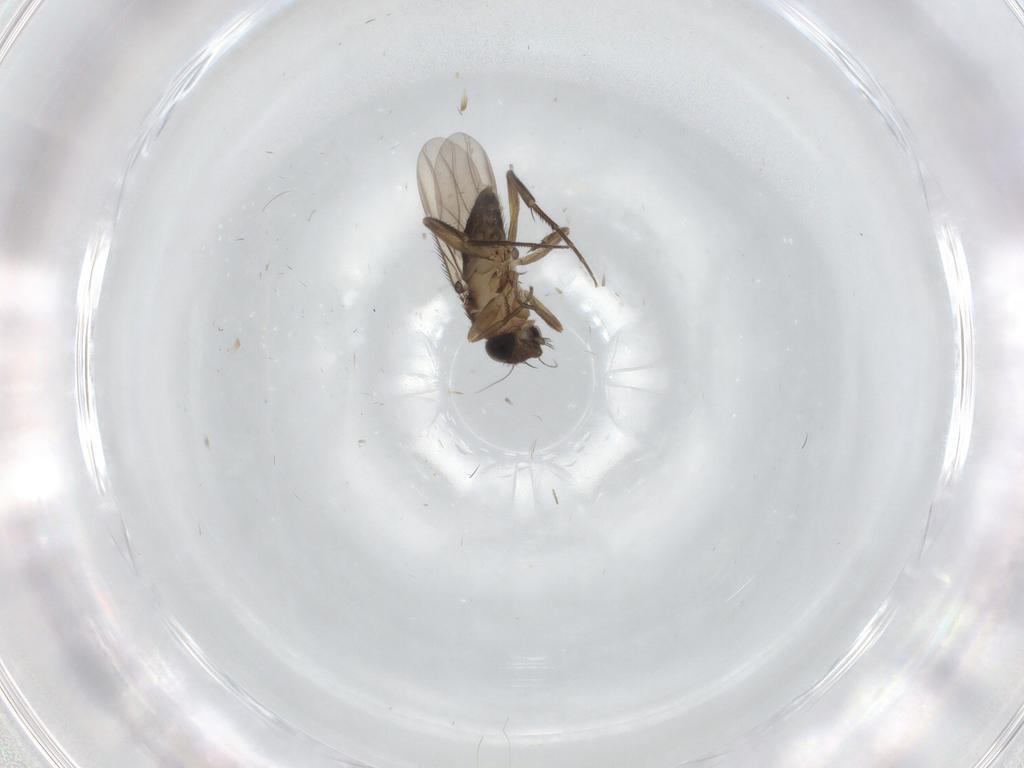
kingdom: Animalia
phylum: Arthropoda
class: Insecta
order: Diptera
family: Phoridae
